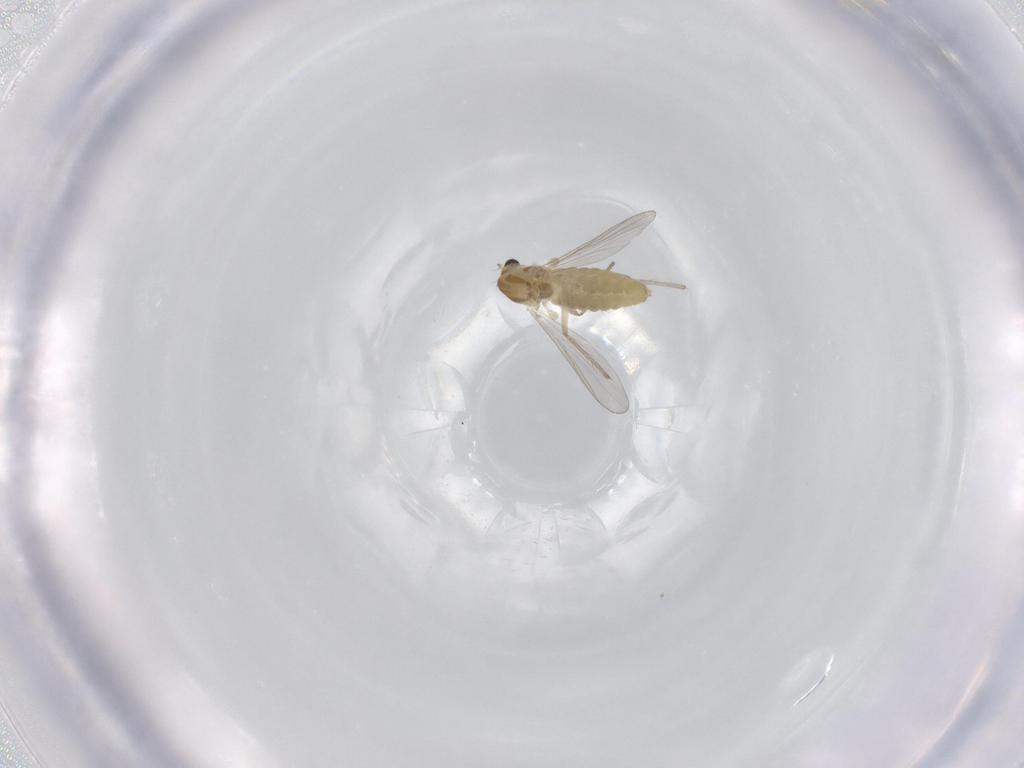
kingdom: Animalia
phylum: Arthropoda
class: Insecta
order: Diptera
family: Chironomidae
